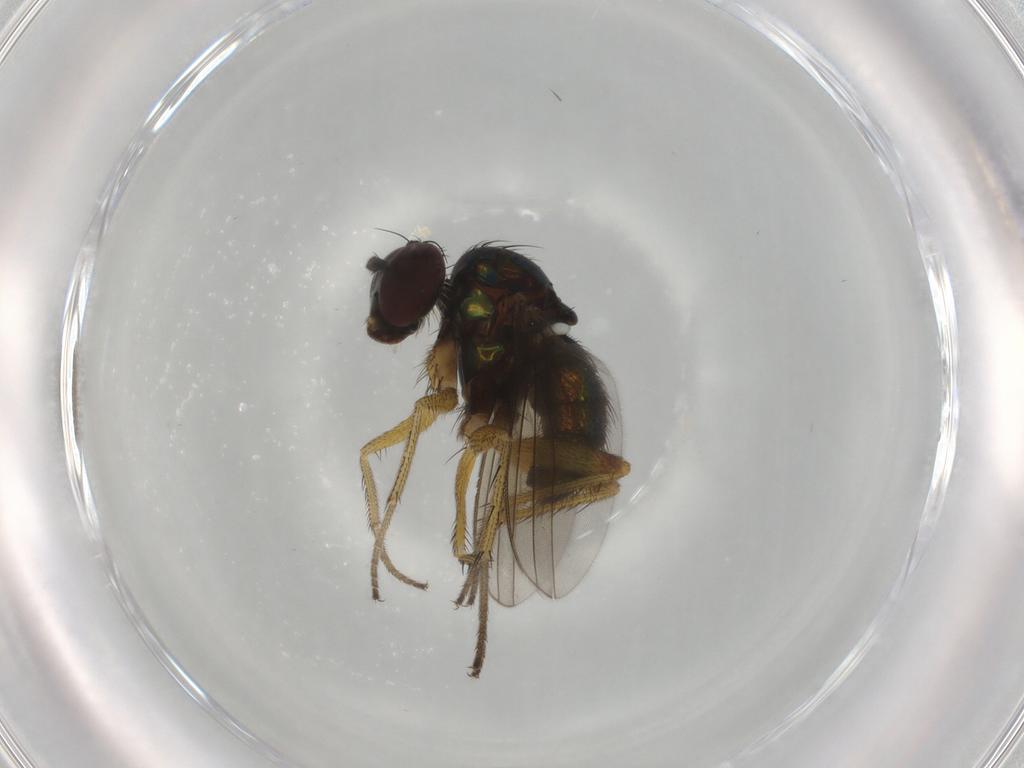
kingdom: Animalia
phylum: Arthropoda
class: Insecta
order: Diptera
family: Dolichopodidae
